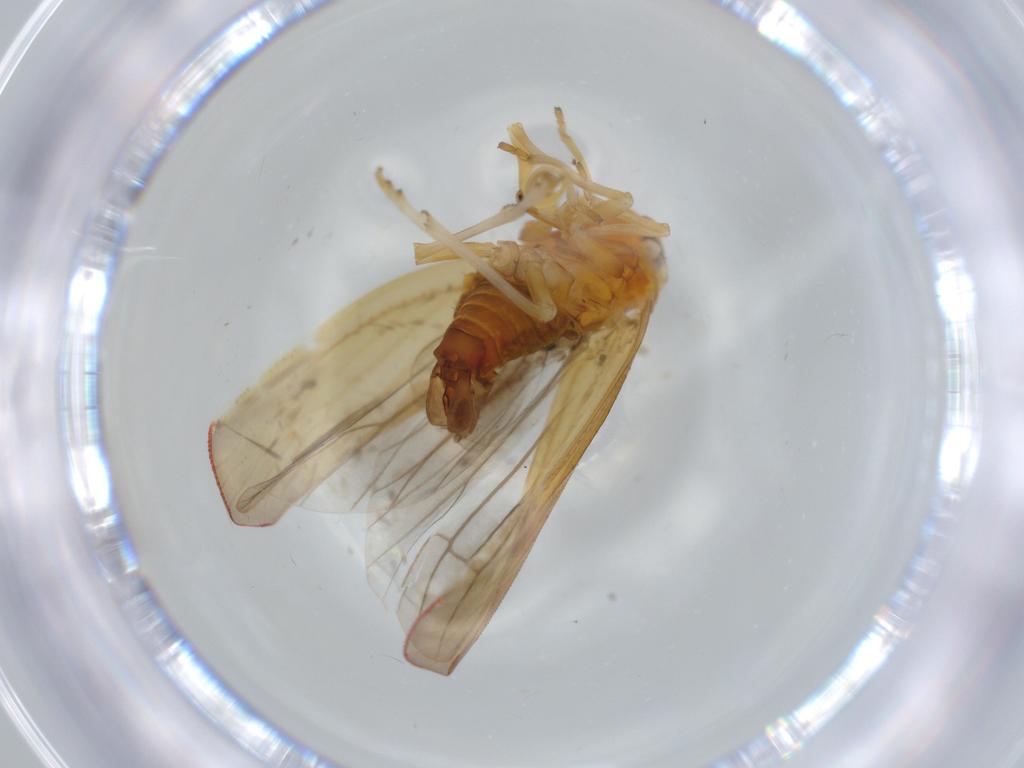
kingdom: Animalia
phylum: Arthropoda
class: Insecta
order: Hemiptera
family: Derbidae
